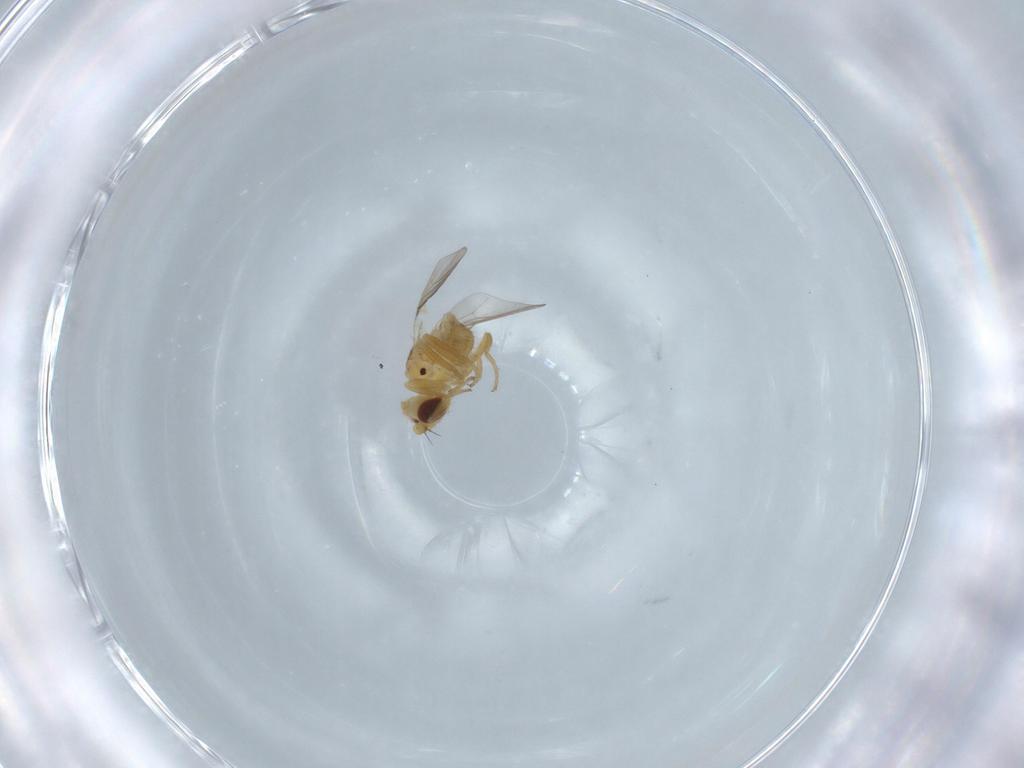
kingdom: Animalia
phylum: Arthropoda
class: Insecta
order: Diptera
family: Chloropidae
